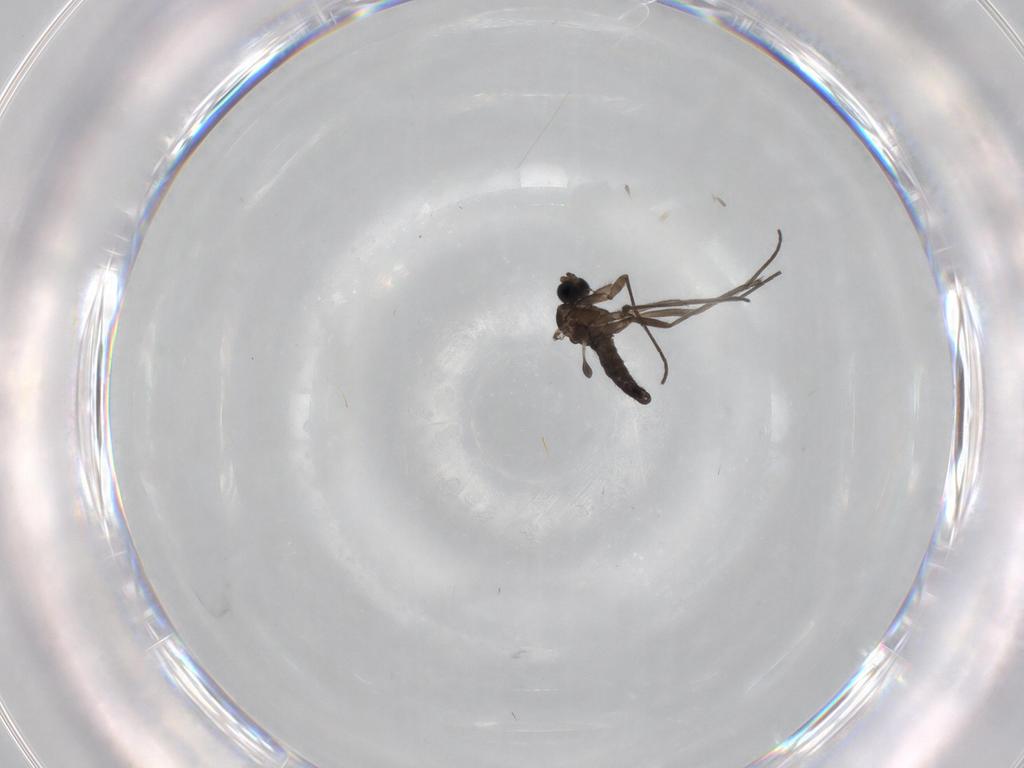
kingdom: Animalia
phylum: Arthropoda
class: Insecta
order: Diptera
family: Sciaridae
